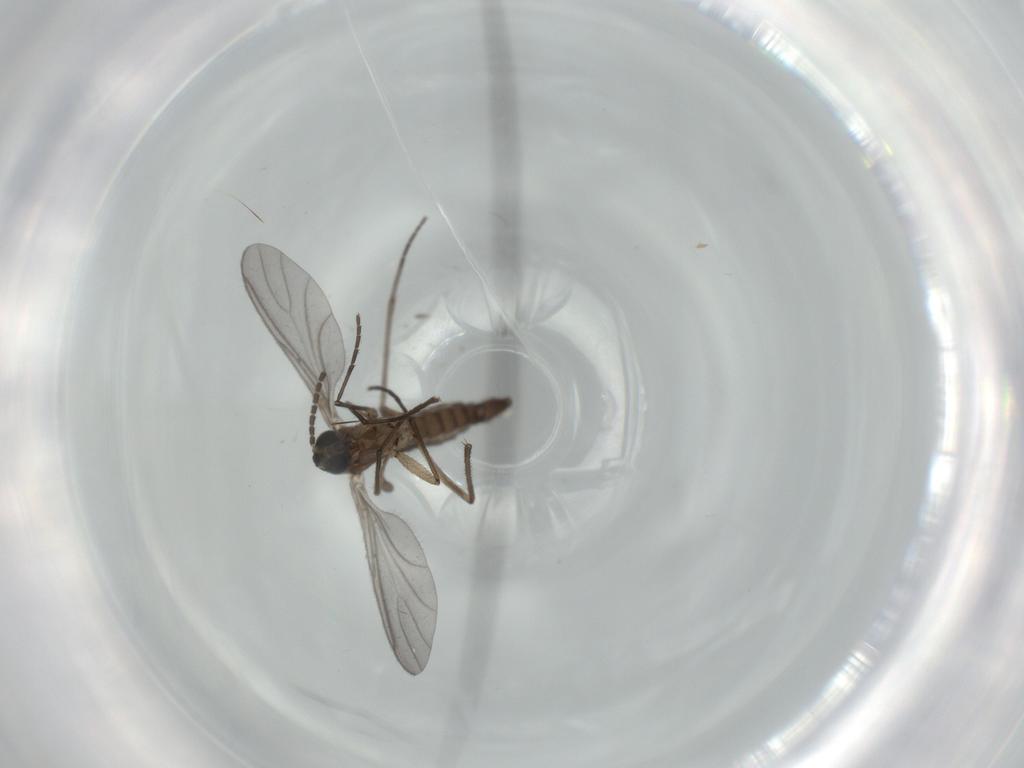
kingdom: Animalia
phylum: Arthropoda
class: Insecta
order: Diptera
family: Sciaridae
